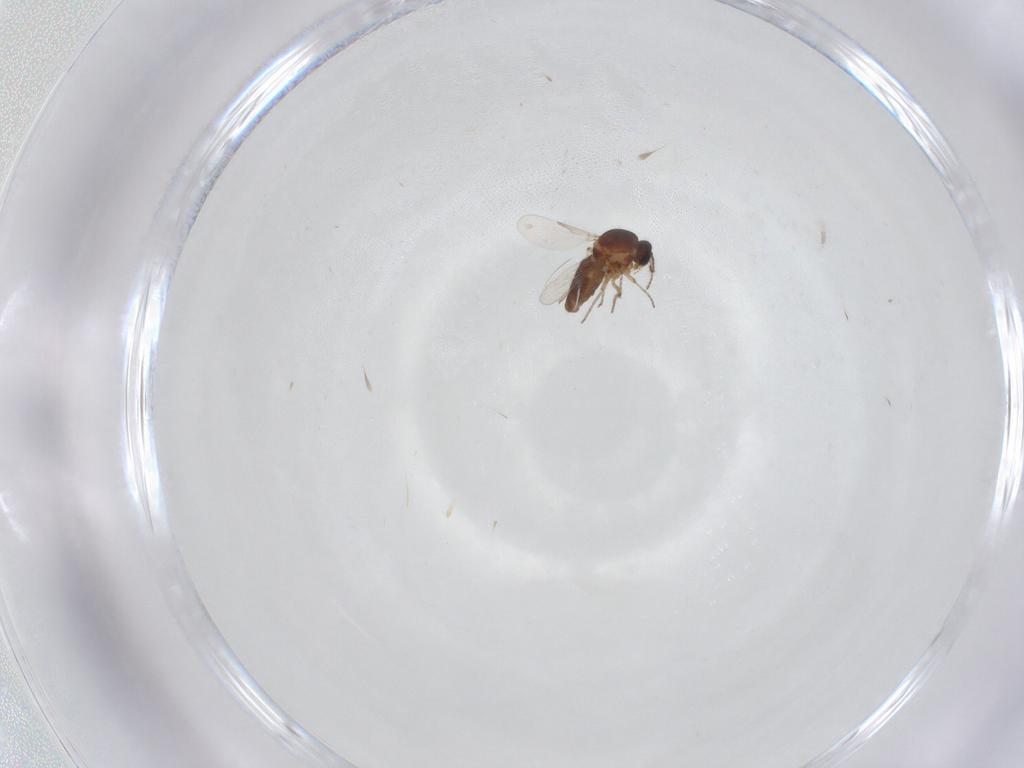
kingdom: Animalia
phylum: Arthropoda
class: Insecta
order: Diptera
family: Ceratopogonidae
